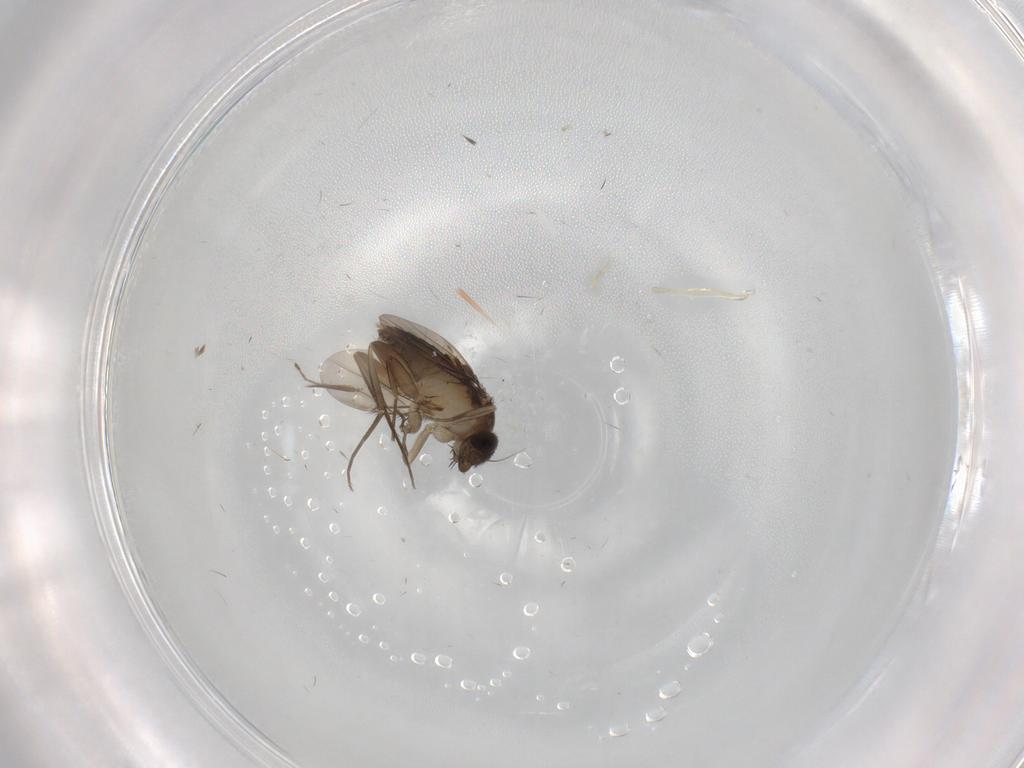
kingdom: Animalia
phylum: Arthropoda
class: Insecta
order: Diptera
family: Phoridae
